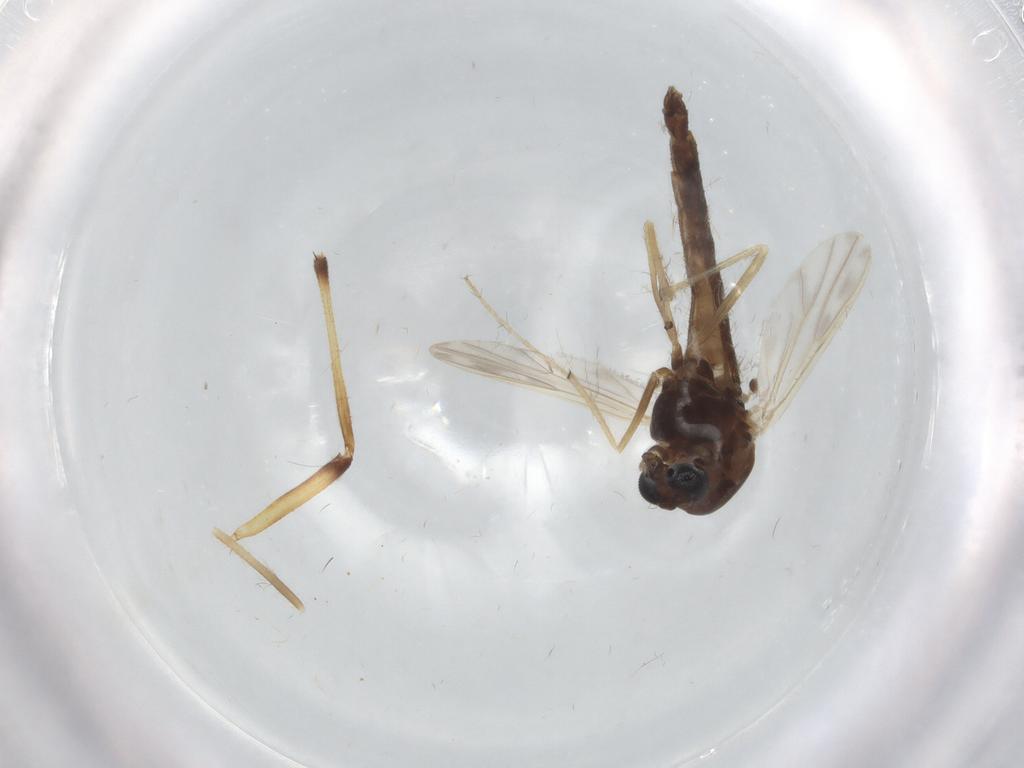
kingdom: Animalia
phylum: Arthropoda
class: Insecta
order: Diptera
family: Chironomidae
